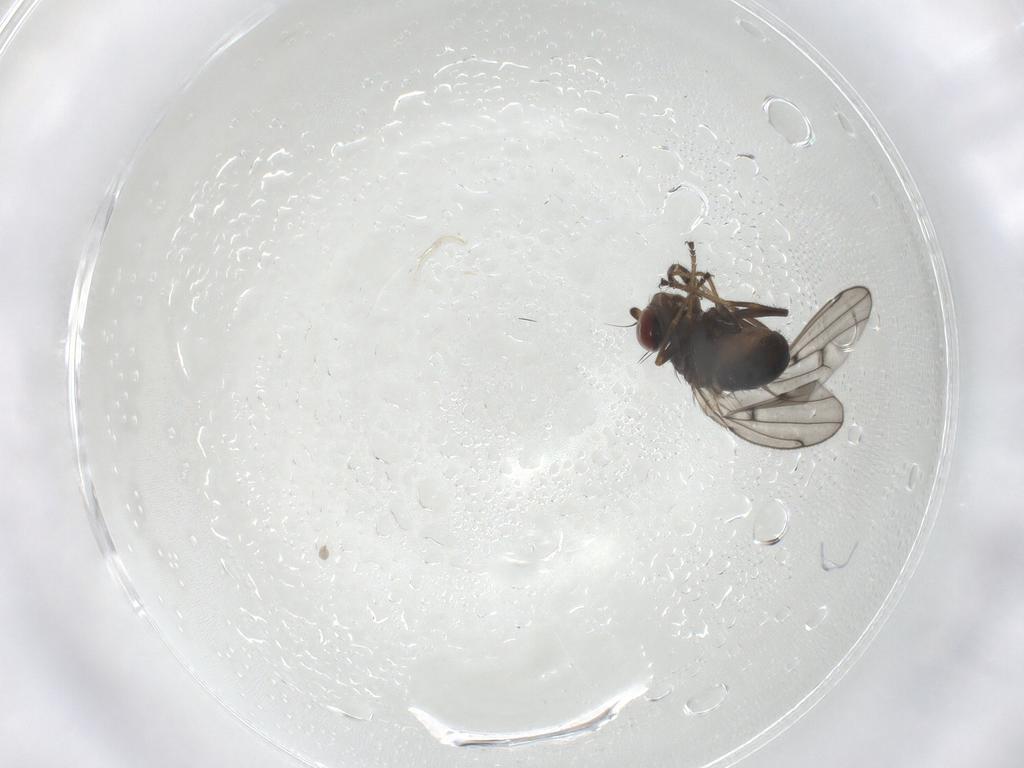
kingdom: Animalia
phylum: Arthropoda
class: Insecta
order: Diptera
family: Ephydridae
